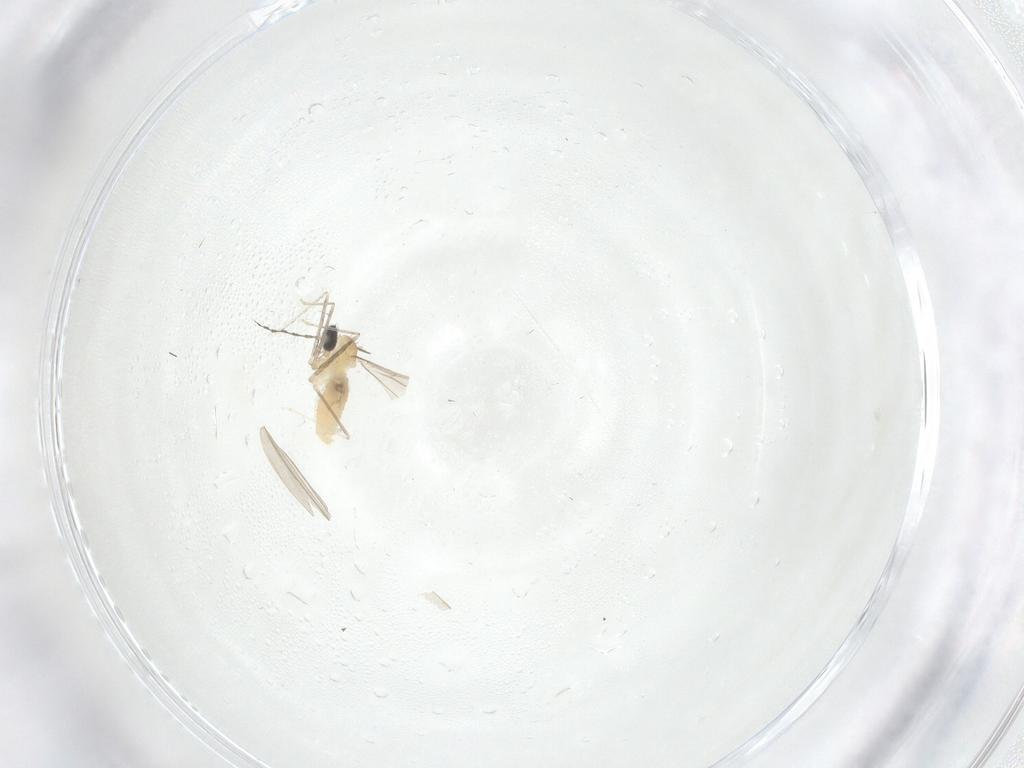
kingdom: Animalia
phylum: Arthropoda
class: Insecta
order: Diptera
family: Cecidomyiidae
